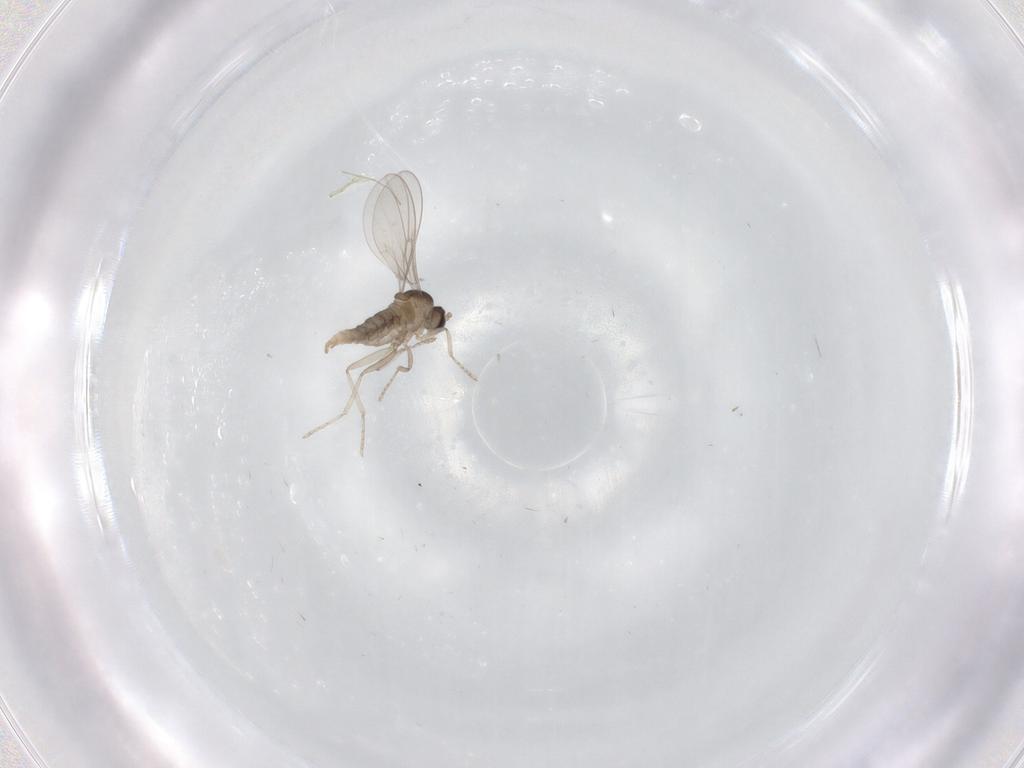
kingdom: Animalia
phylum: Arthropoda
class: Insecta
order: Diptera
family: Cecidomyiidae
